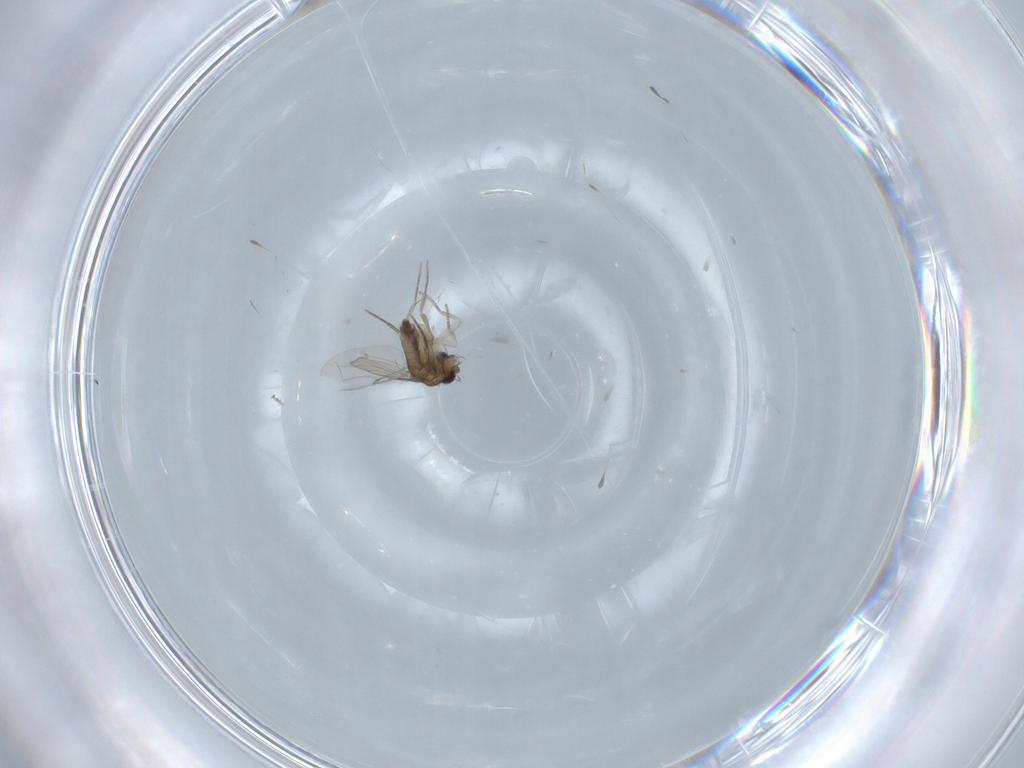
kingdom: Animalia
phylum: Arthropoda
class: Insecta
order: Diptera
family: Phoridae
